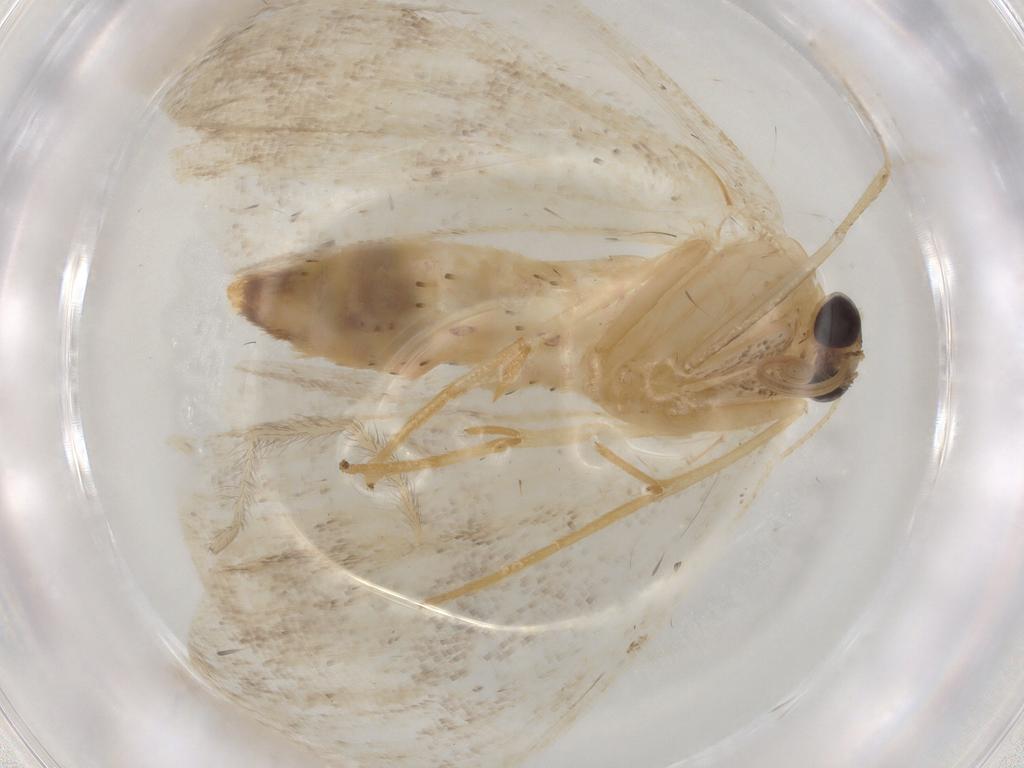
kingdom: Animalia
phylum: Arthropoda
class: Insecta
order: Lepidoptera
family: Geometridae
